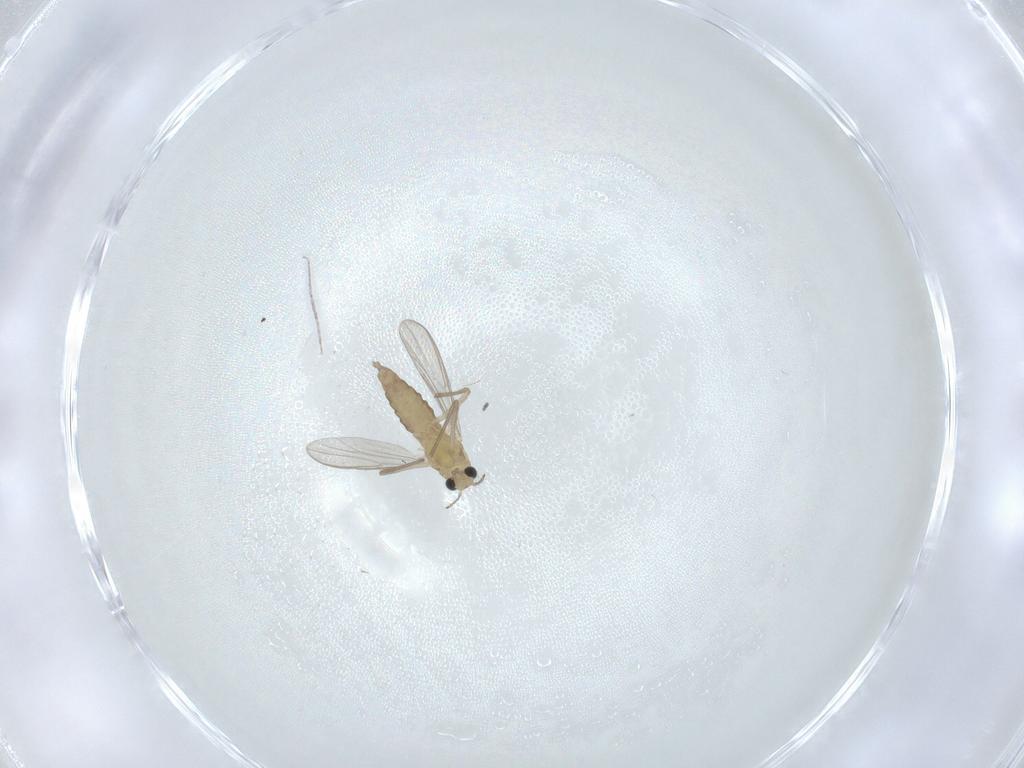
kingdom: Animalia
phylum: Arthropoda
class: Insecta
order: Diptera
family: Chironomidae
